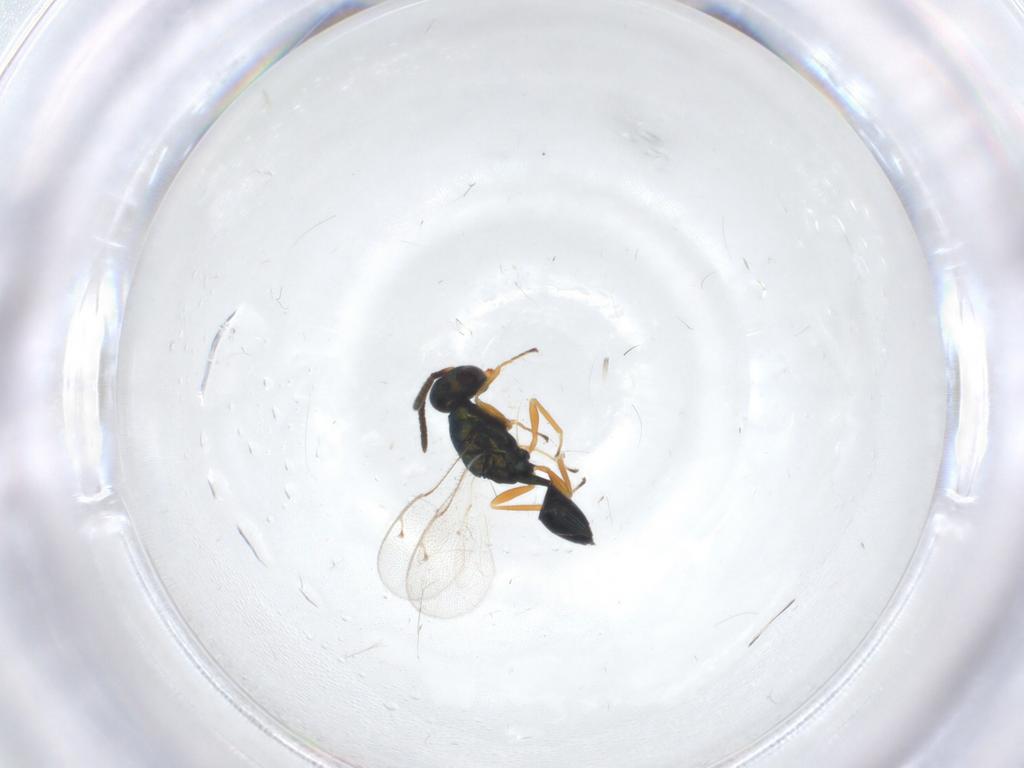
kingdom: Animalia
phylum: Arthropoda
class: Insecta
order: Hymenoptera
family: Pteromalidae
